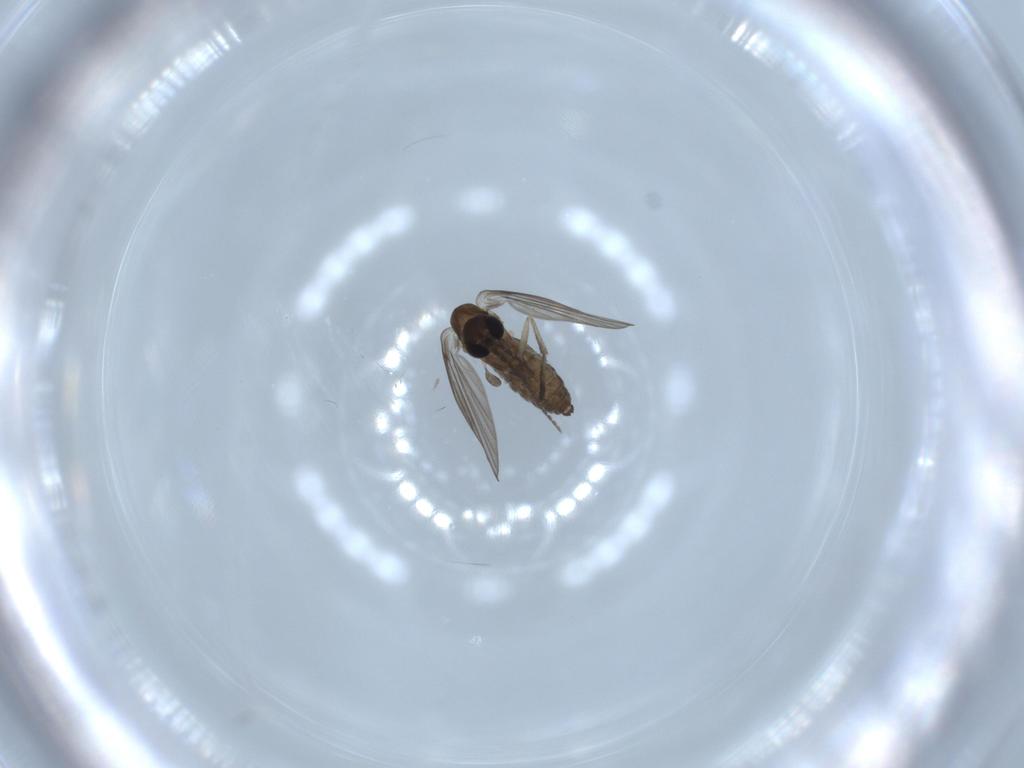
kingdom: Animalia
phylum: Arthropoda
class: Insecta
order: Diptera
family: Psychodidae
